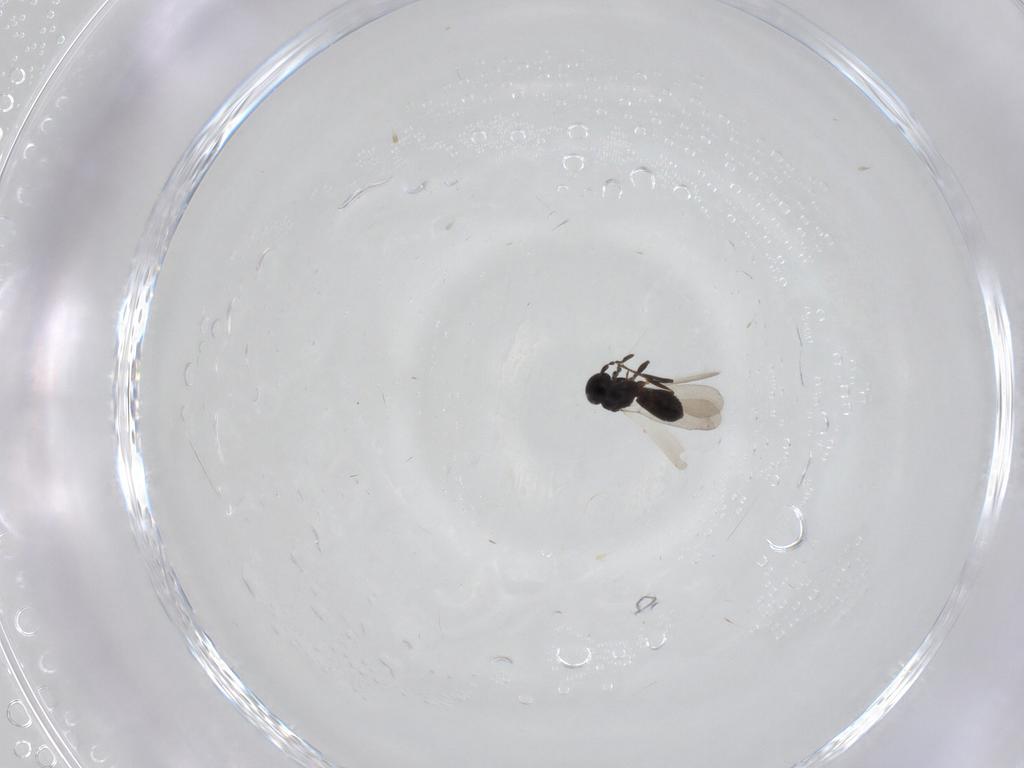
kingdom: Animalia
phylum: Arthropoda
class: Insecta
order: Hymenoptera
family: Platygastridae
